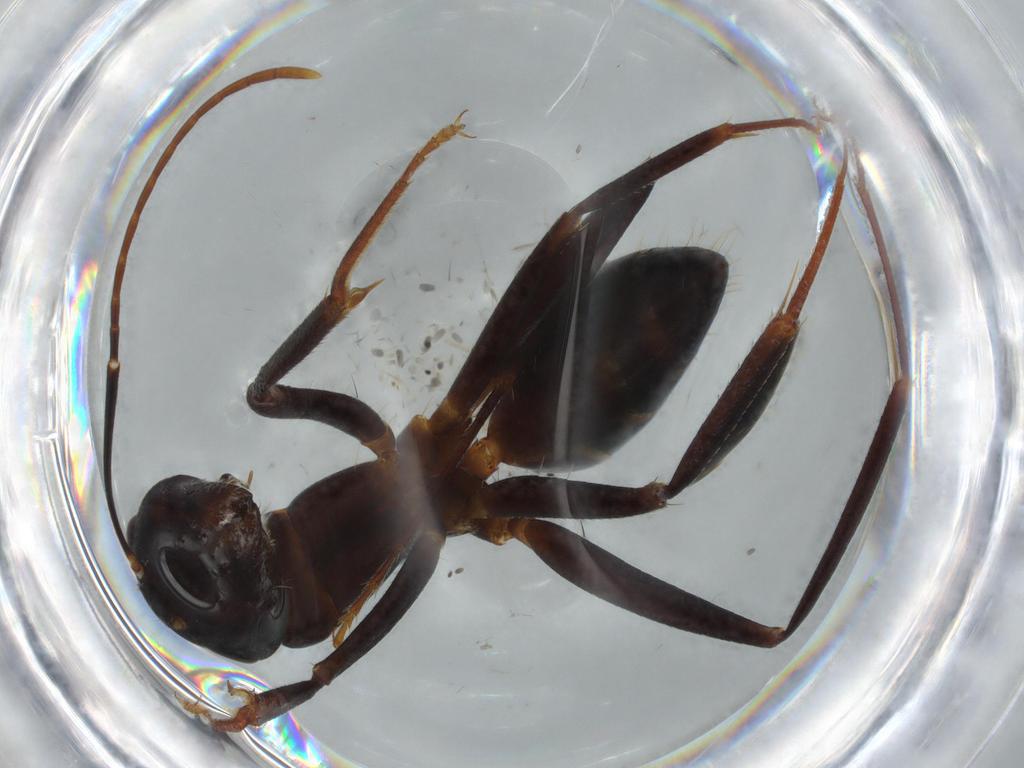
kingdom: Animalia
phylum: Arthropoda
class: Insecta
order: Hymenoptera
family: Formicidae
